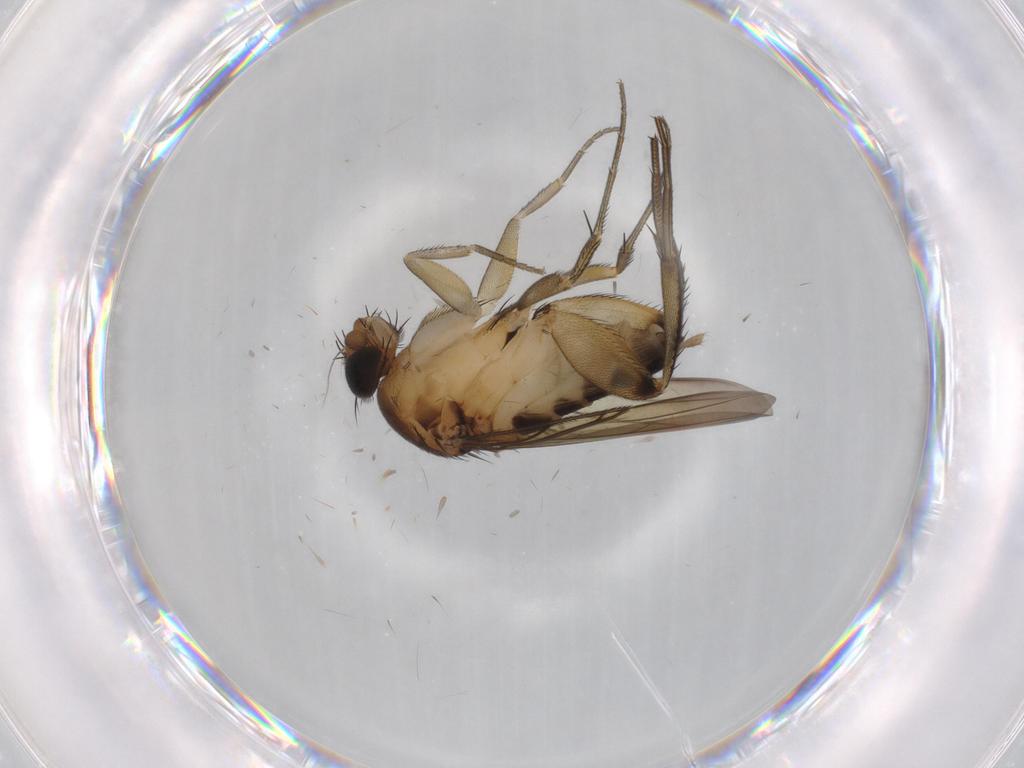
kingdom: Animalia
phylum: Arthropoda
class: Insecta
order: Diptera
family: Chironomidae
